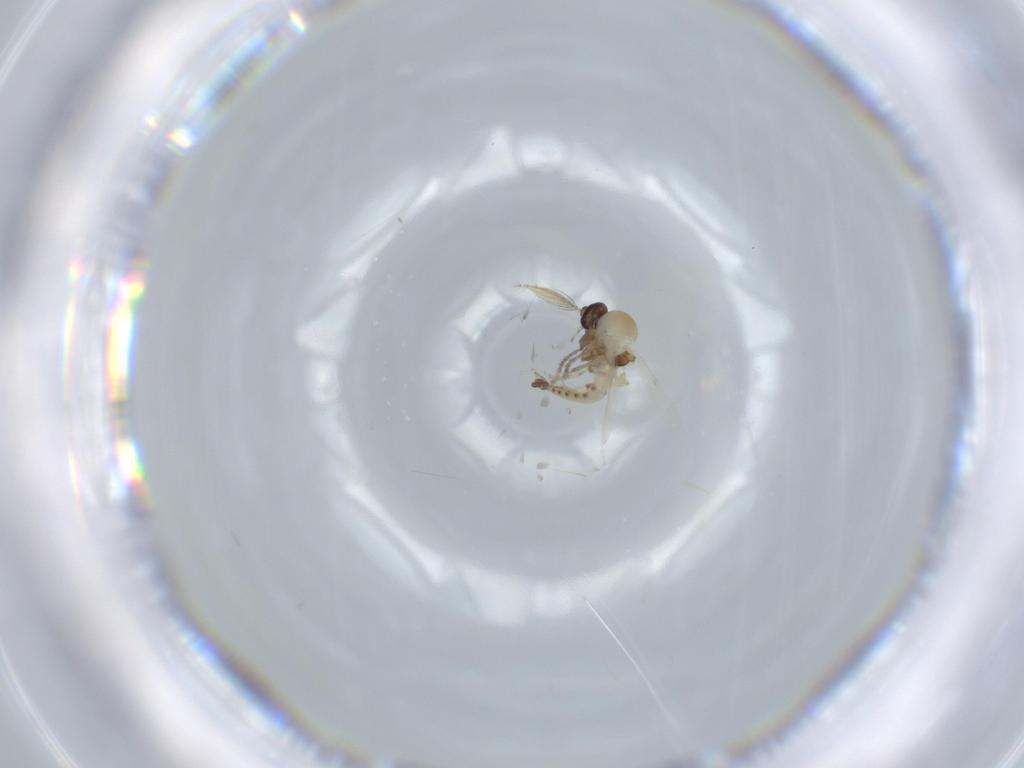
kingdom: Animalia
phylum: Arthropoda
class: Insecta
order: Diptera
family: Ceratopogonidae
